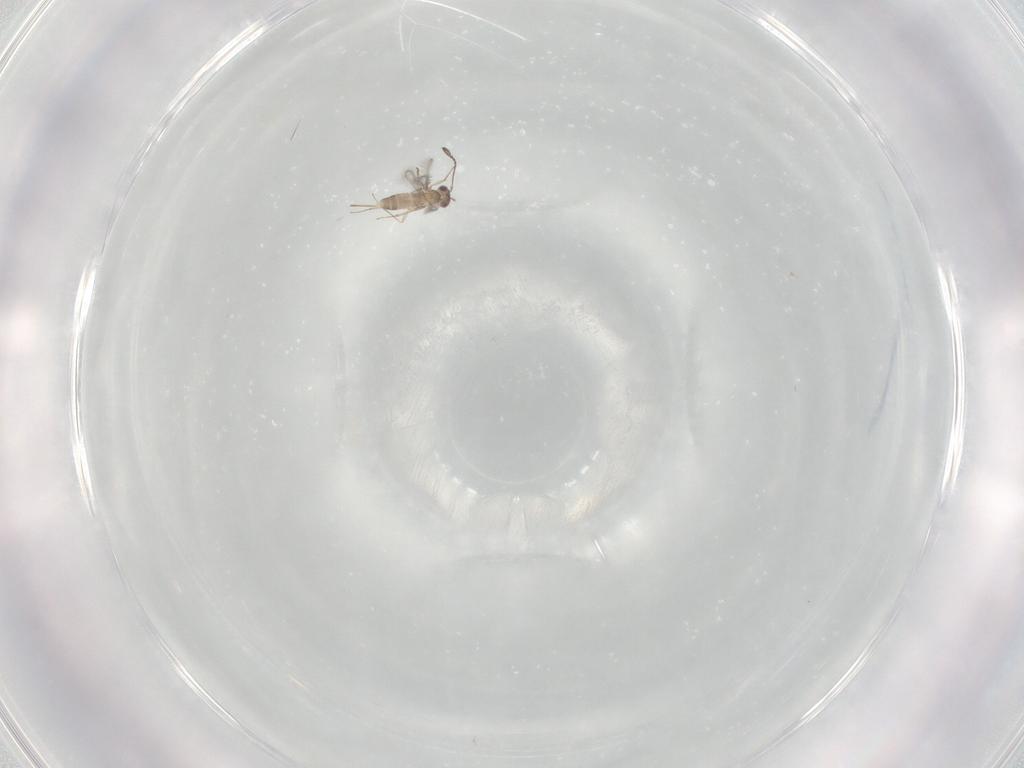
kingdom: Animalia
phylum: Arthropoda
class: Insecta
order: Hymenoptera
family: Mymaridae
